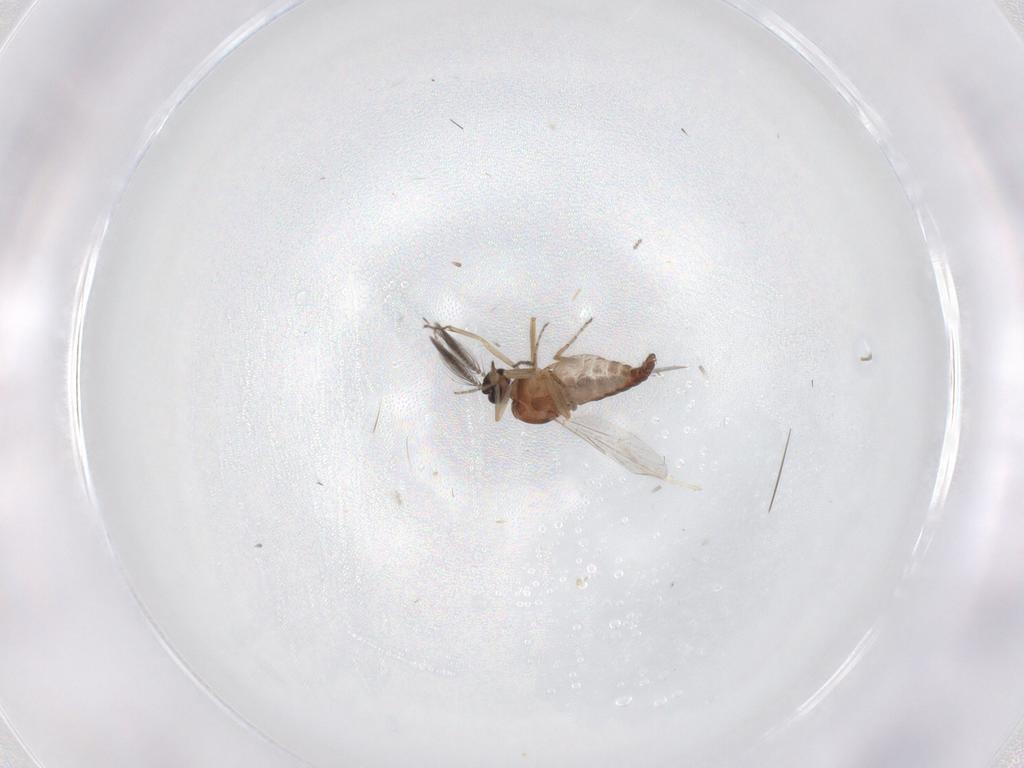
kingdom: Animalia
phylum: Arthropoda
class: Insecta
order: Diptera
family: Ceratopogonidae
